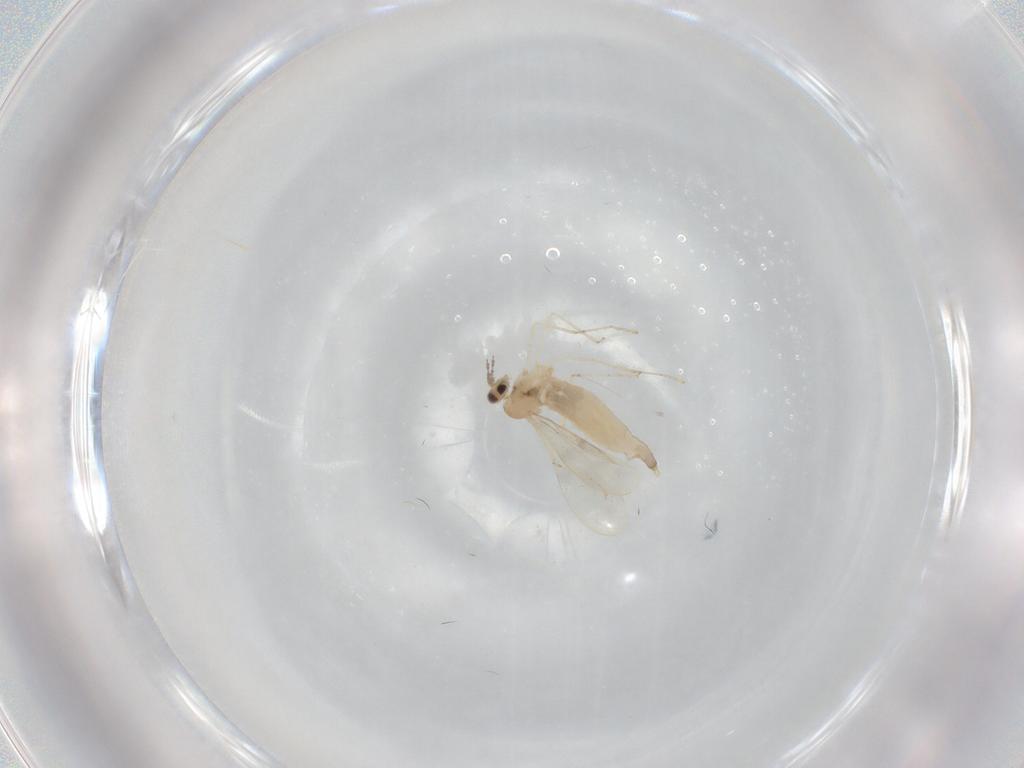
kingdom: Animalia
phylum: Arthropoda
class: Insecta
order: Diptera
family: Cecidomyiidae
